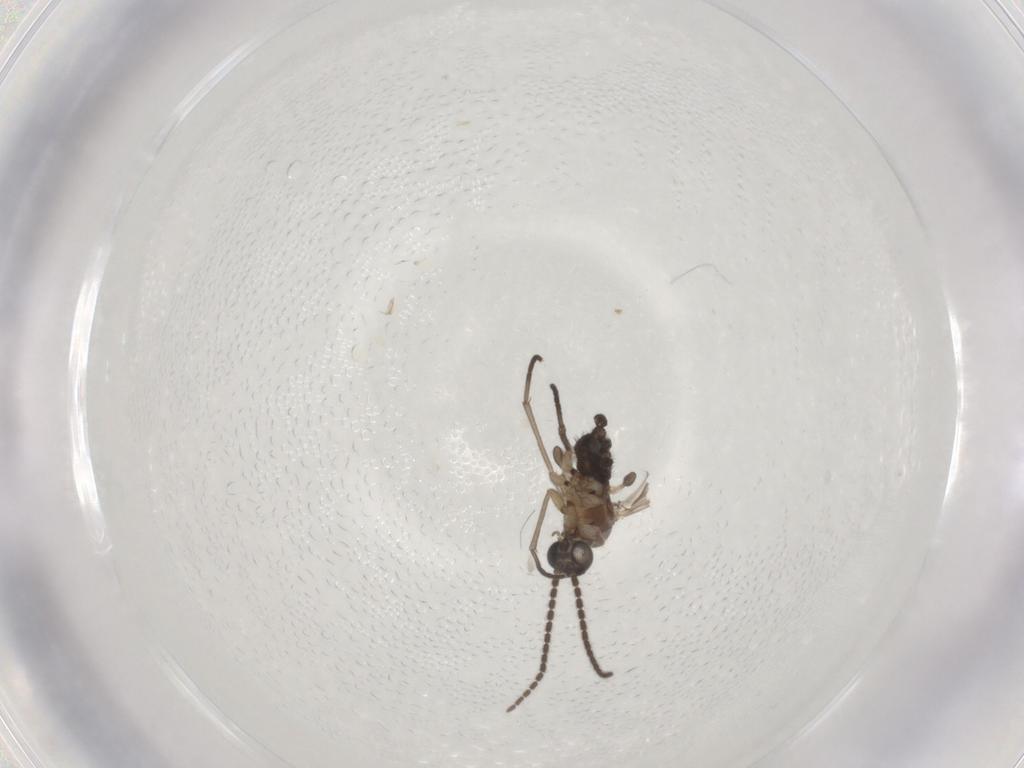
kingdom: Animalia
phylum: Arthropoda
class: Insecta
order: Diptera
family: Sciaridae
